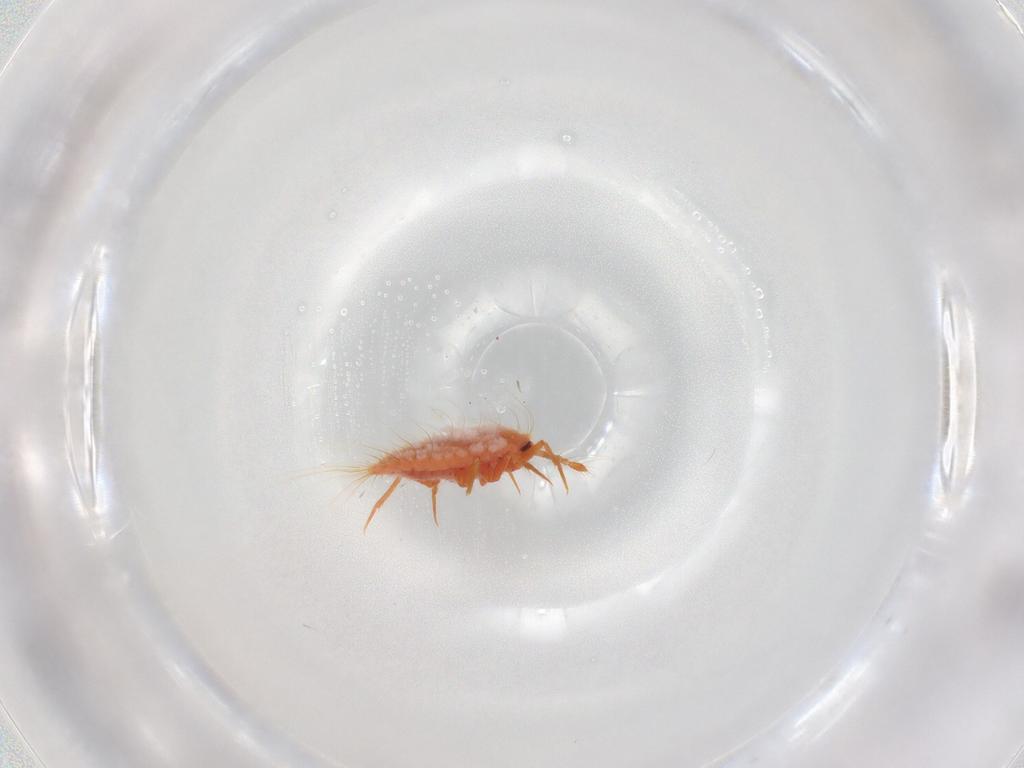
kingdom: Animalia
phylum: Arthropoda
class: Insecta
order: Hemiptera
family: Coccoidea_incertae_sedis
